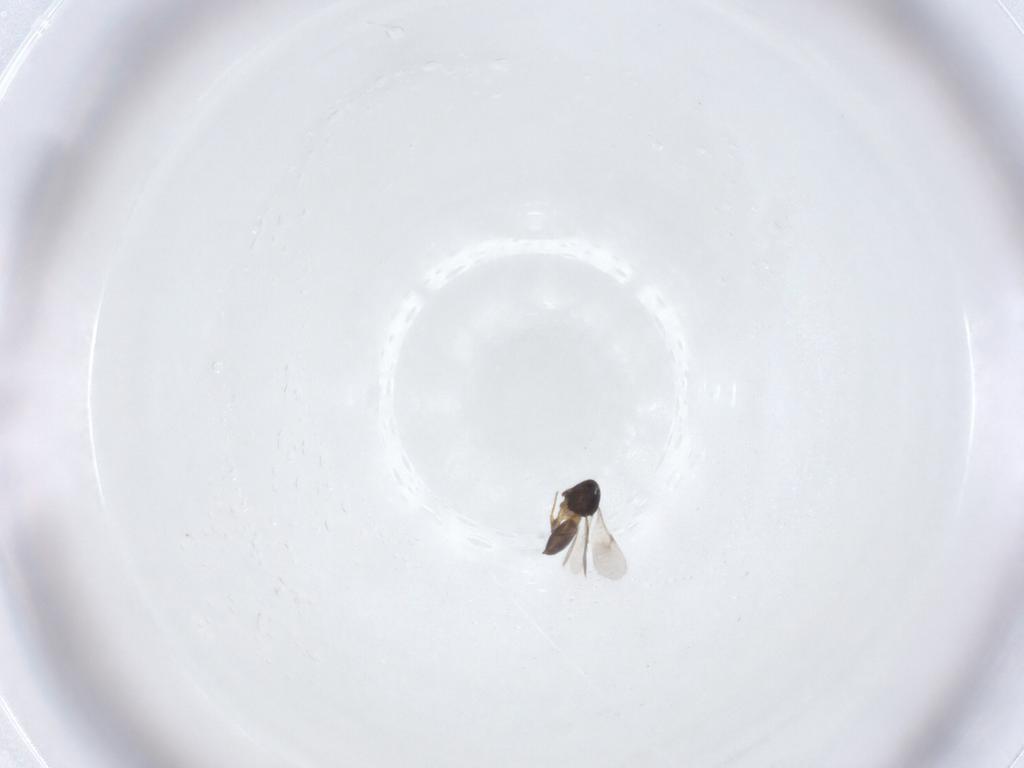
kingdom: Animalia
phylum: Arthropoda
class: Insecta
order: Hymenoptera
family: Scelionidae
